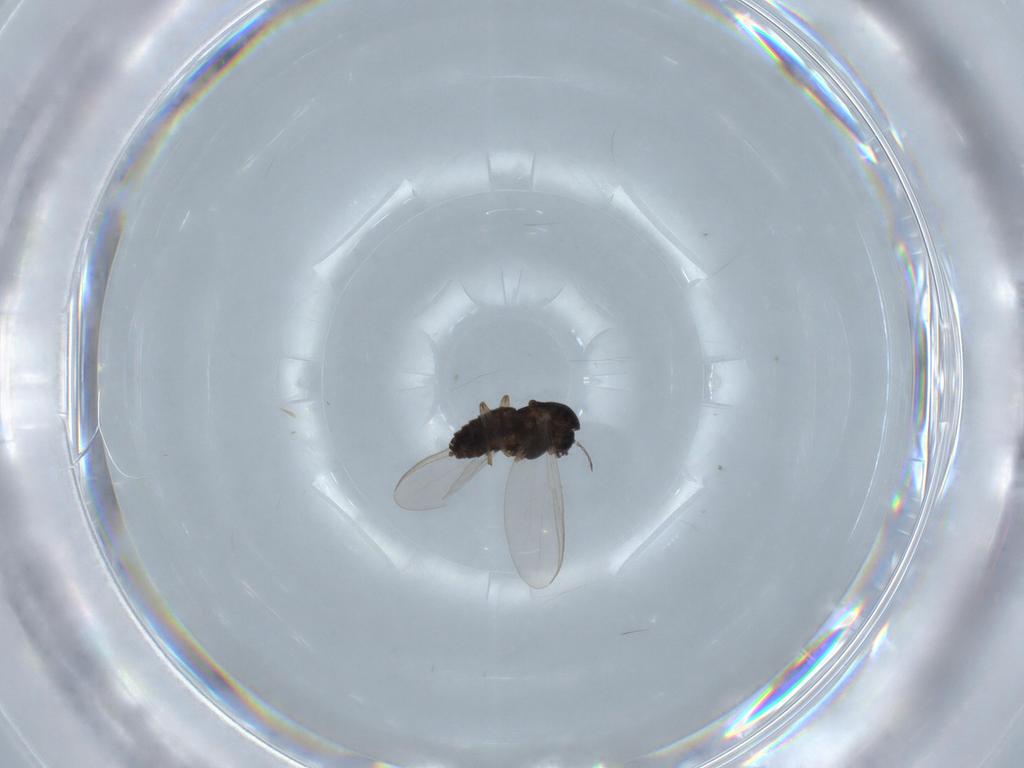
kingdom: Animalia
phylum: Arthropoda
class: Insecta
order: Diptera
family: Chironomidae
